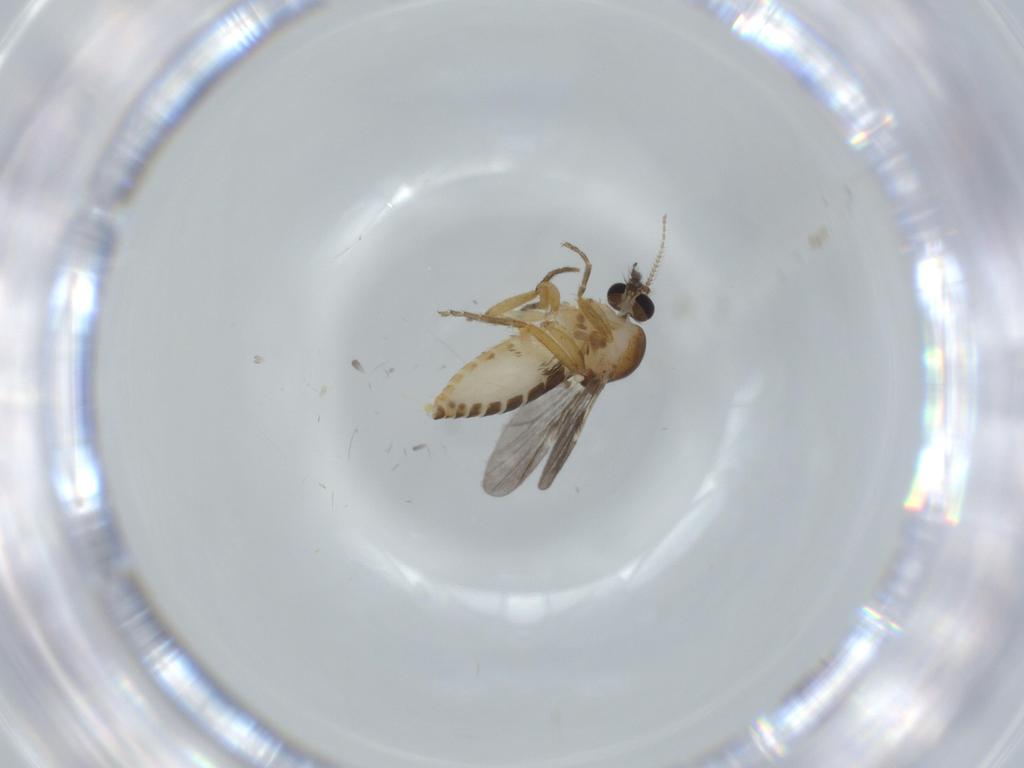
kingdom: Animalia
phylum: Arthropoda
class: Insecta
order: Diptera
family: Ceratopogonidae
